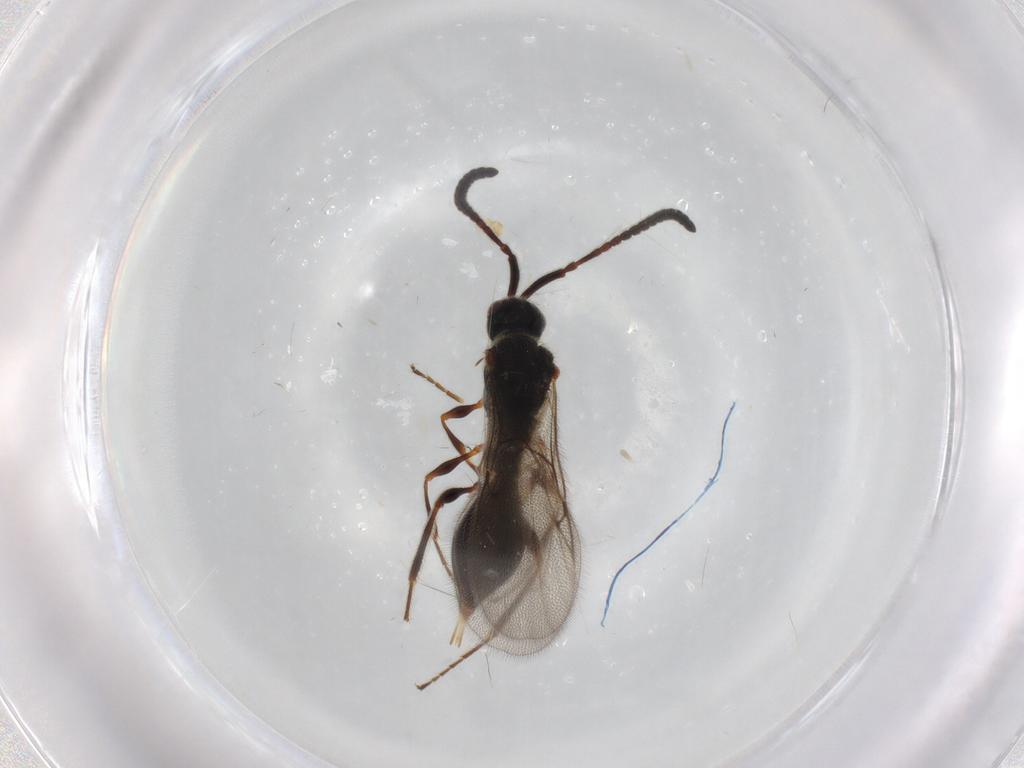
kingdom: Animalia
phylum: Arthropoda
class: Insecta
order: Hymenoptera
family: Diapriidae
